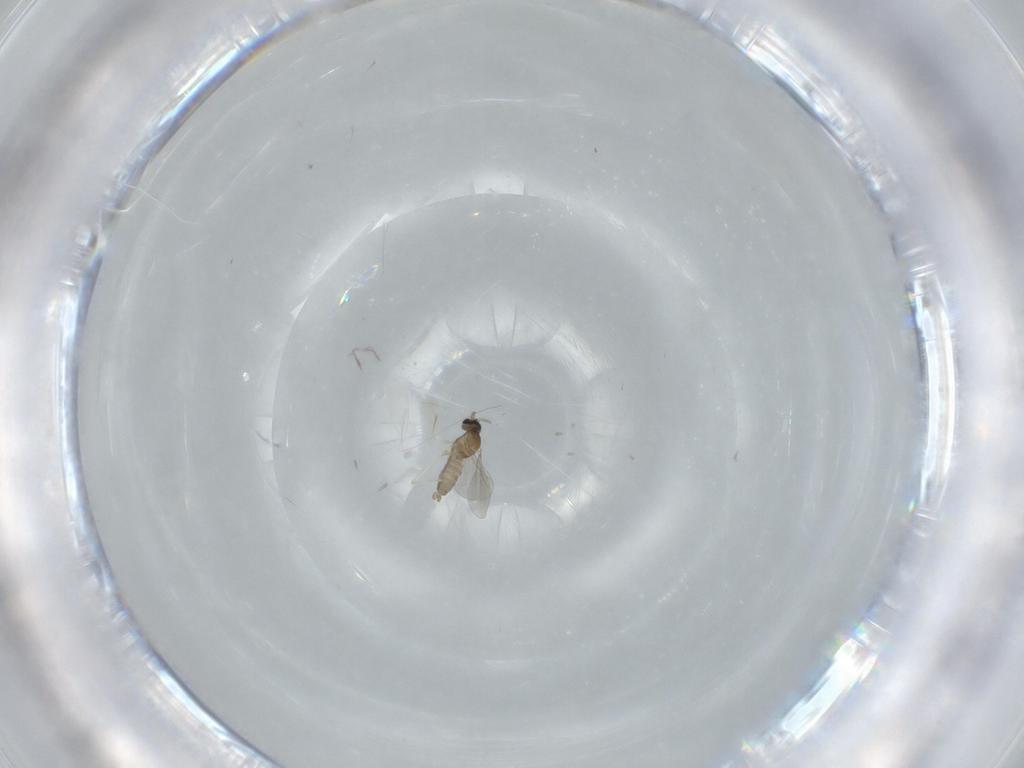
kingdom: Animalia
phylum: Arthropoda
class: Insecta
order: Diptera
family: Cecidomyiidae
